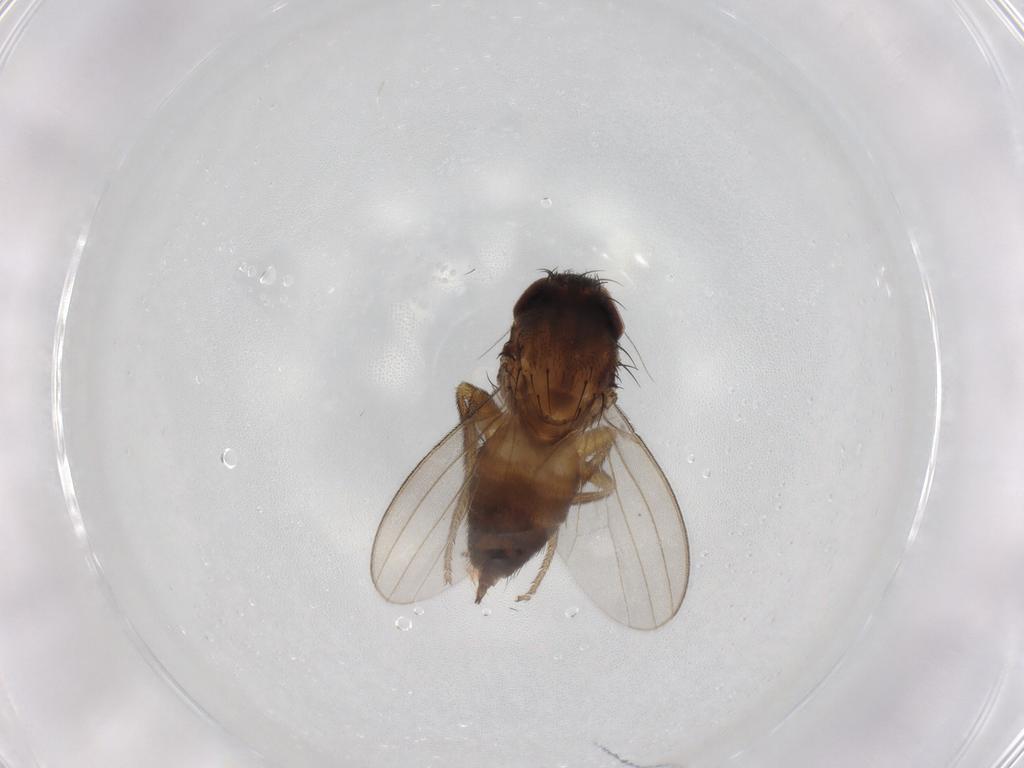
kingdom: Animalia
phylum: Arthropoda
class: Insecta
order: Diptera
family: Milichiidae
